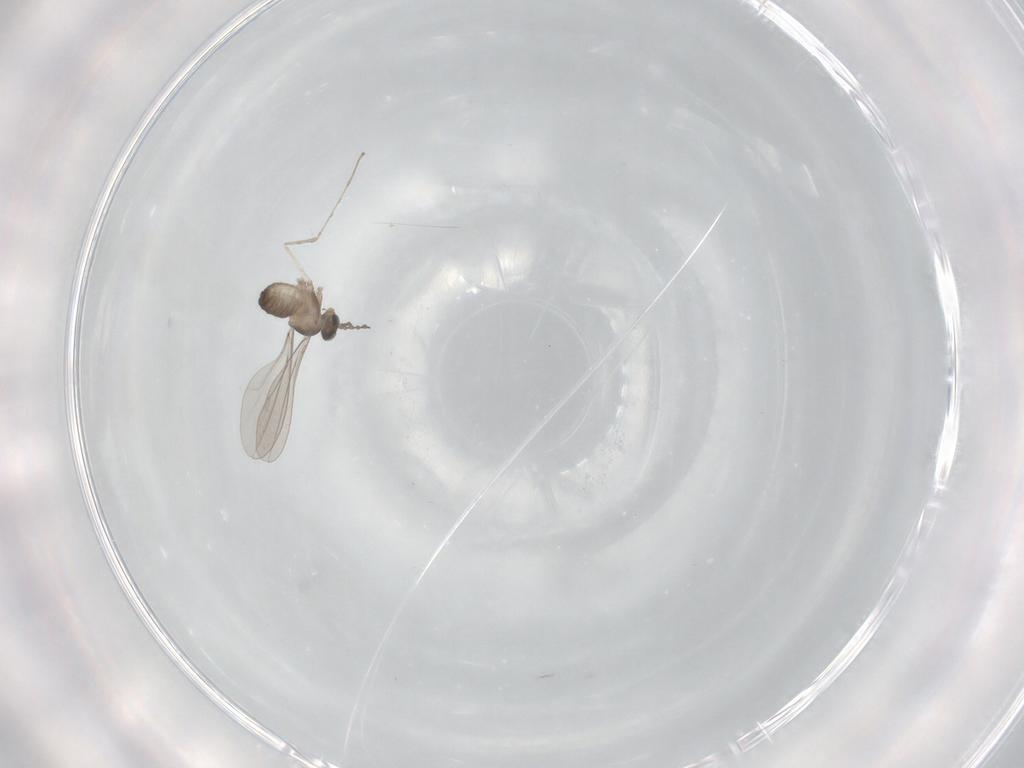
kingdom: Animalia
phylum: Arthropoda
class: Insecta
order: Diptera
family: Cecidomyiidae
